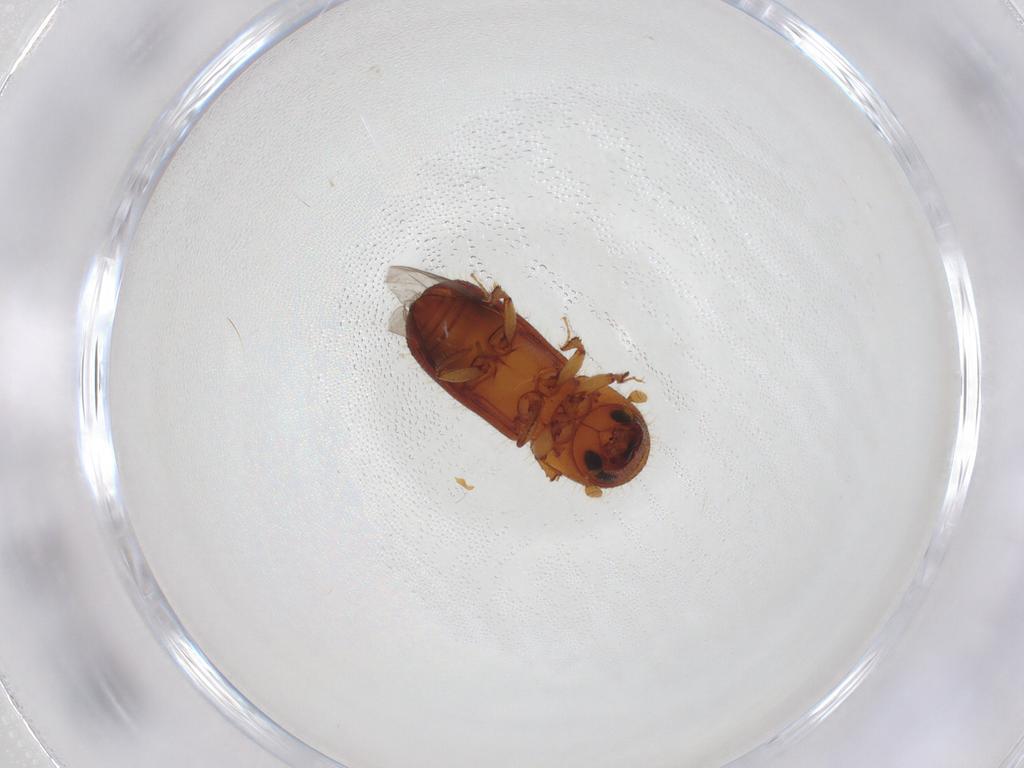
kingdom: Animalia
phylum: Arthropoda
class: Insecta
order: Coleoptera
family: Curculionidae
